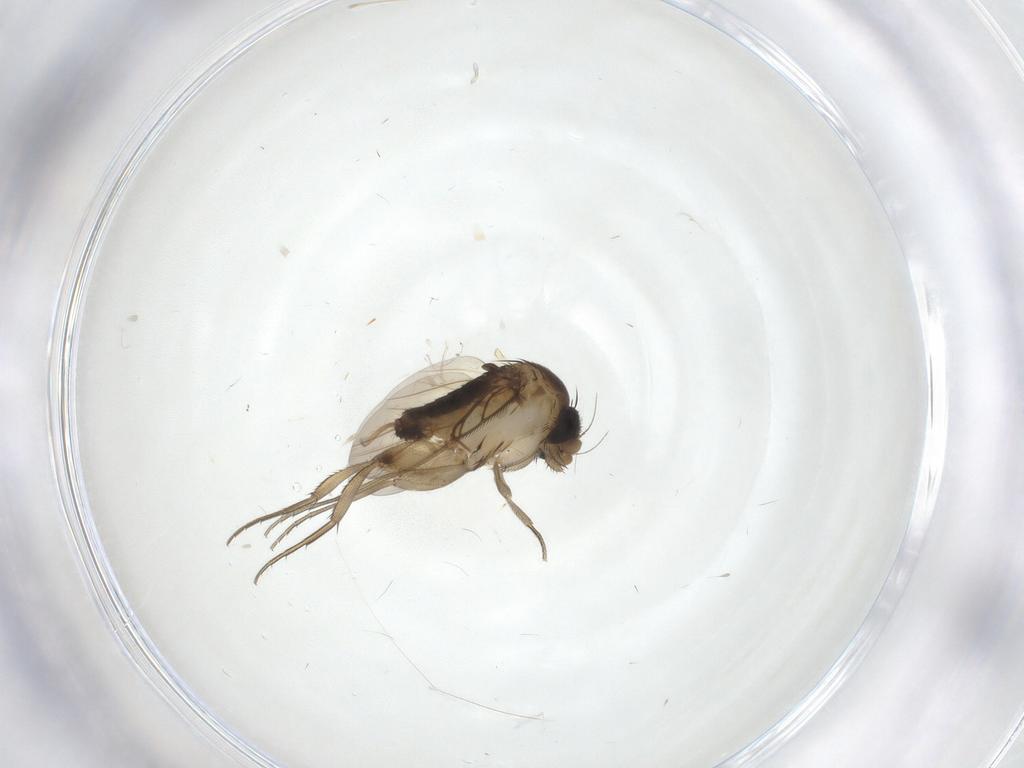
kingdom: Animalia
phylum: Arthropoda
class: Insecta
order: Diptera
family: Phoridae
